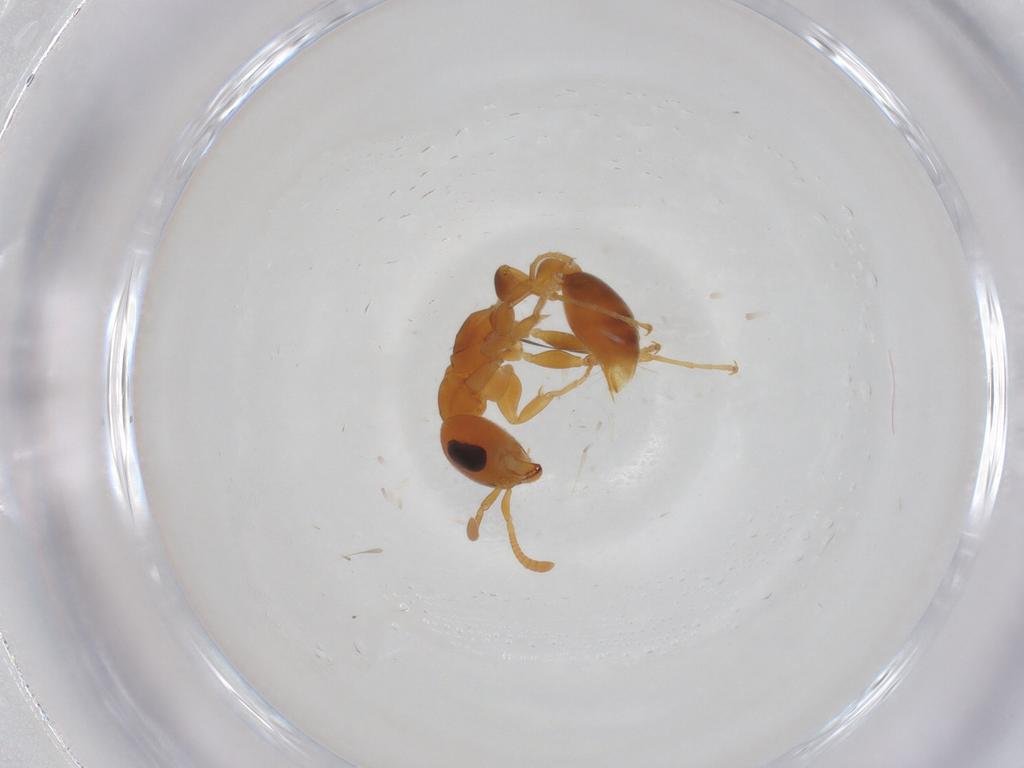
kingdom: Animalia
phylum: Arthropoda
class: Insecta
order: Hymenoptera
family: Formicidae
